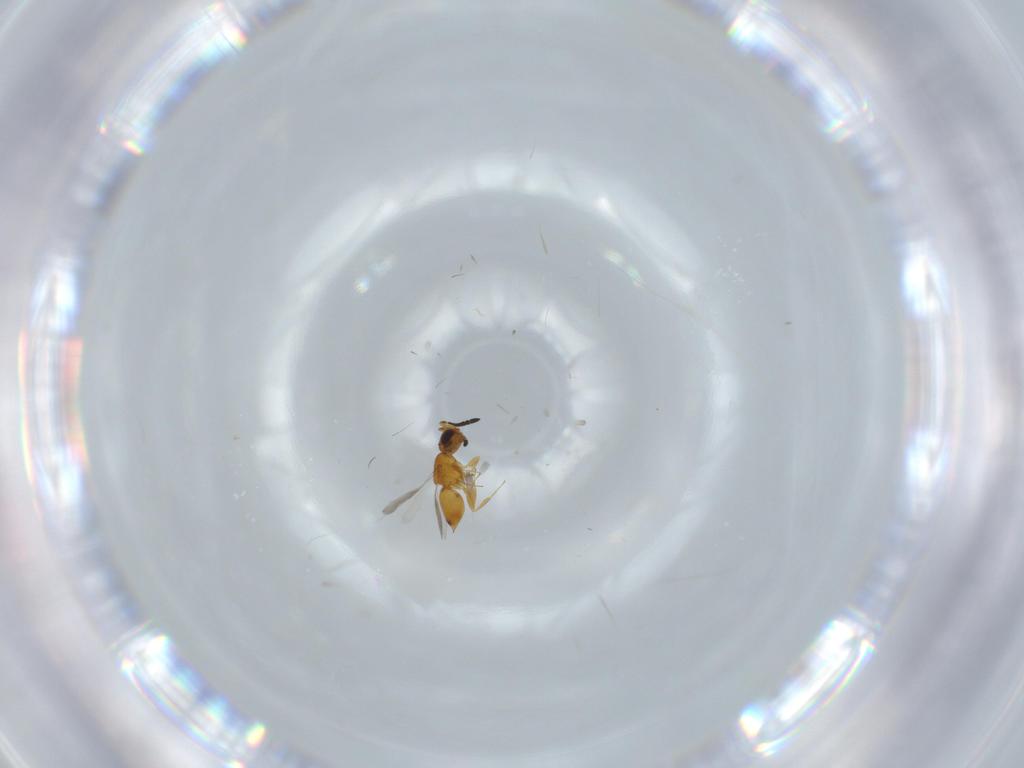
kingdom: Animalia
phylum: Arthropoda
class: Insecta
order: Hymenoptera
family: Ceraphronidae
